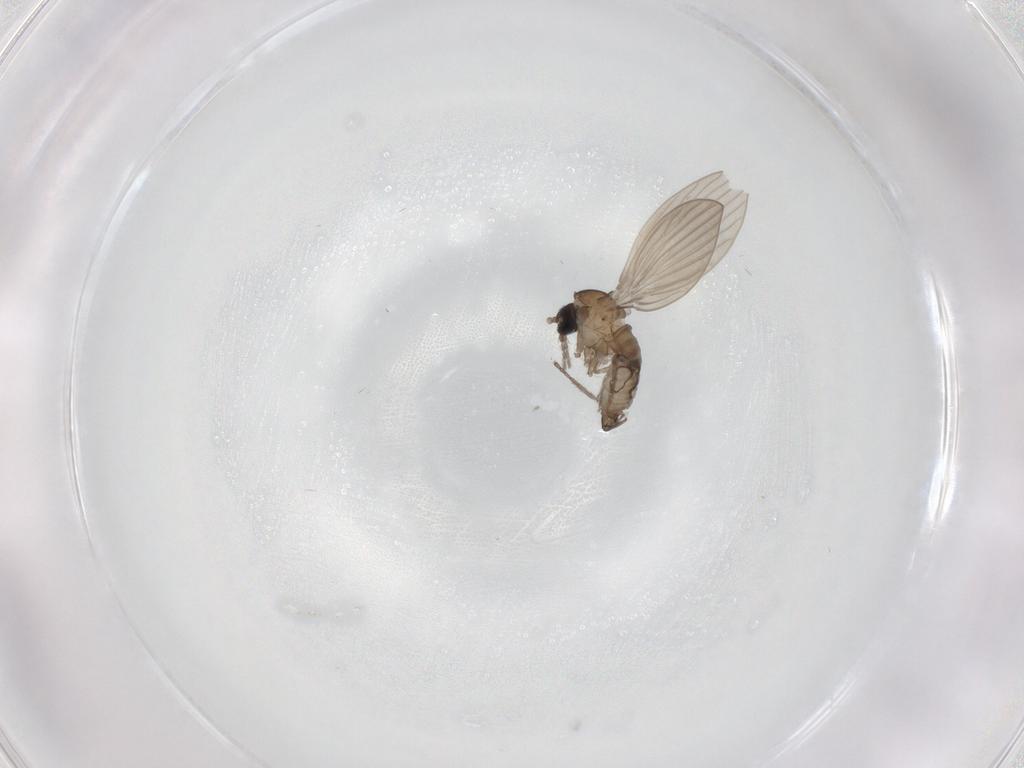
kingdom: Animalia
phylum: Arthropoda
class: Insecta
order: Diptera
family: Psychodidae
